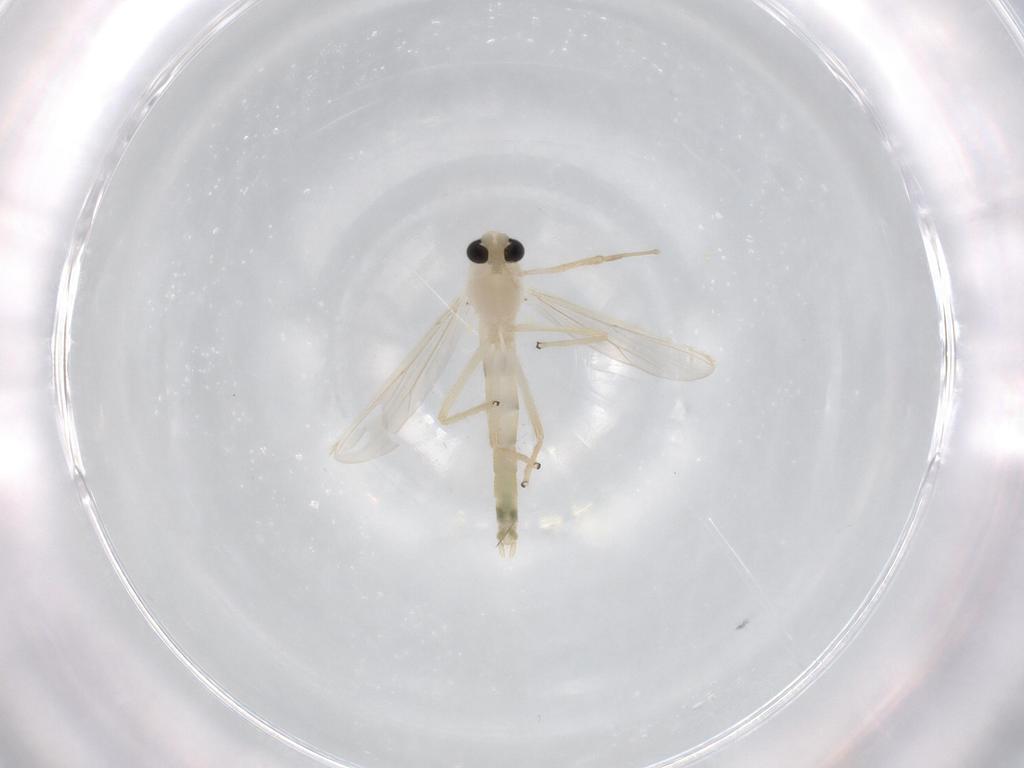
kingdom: Animalia
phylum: Arthropoda
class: Insecta
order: Diptera
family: Chironomidae
